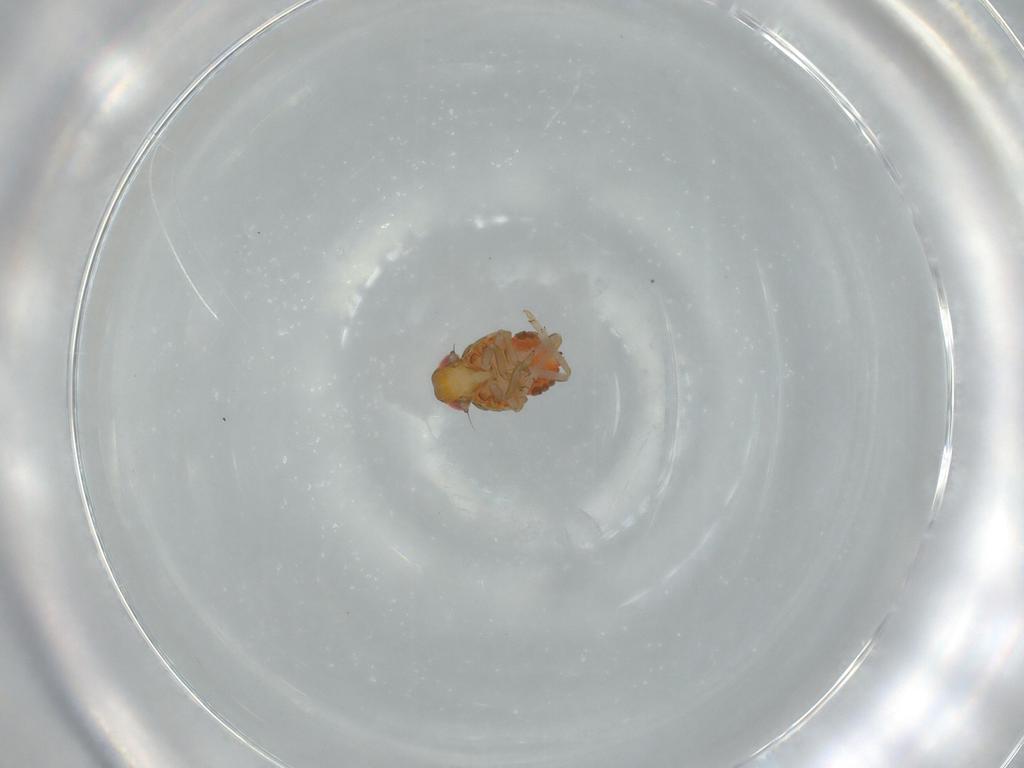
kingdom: Animalia
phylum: Arthropoda
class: Insecta
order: Hemiptera
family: Issidae
